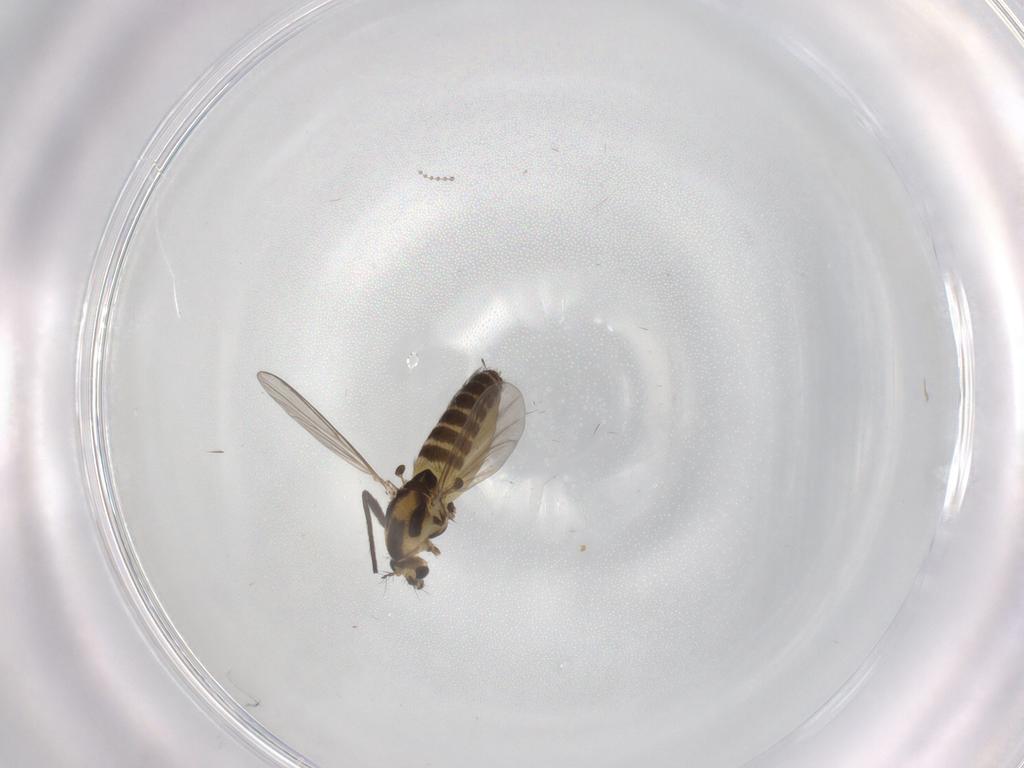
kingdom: Animalia
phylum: Arthropoda
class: Insecta
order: Diptera
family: Chironomidae
